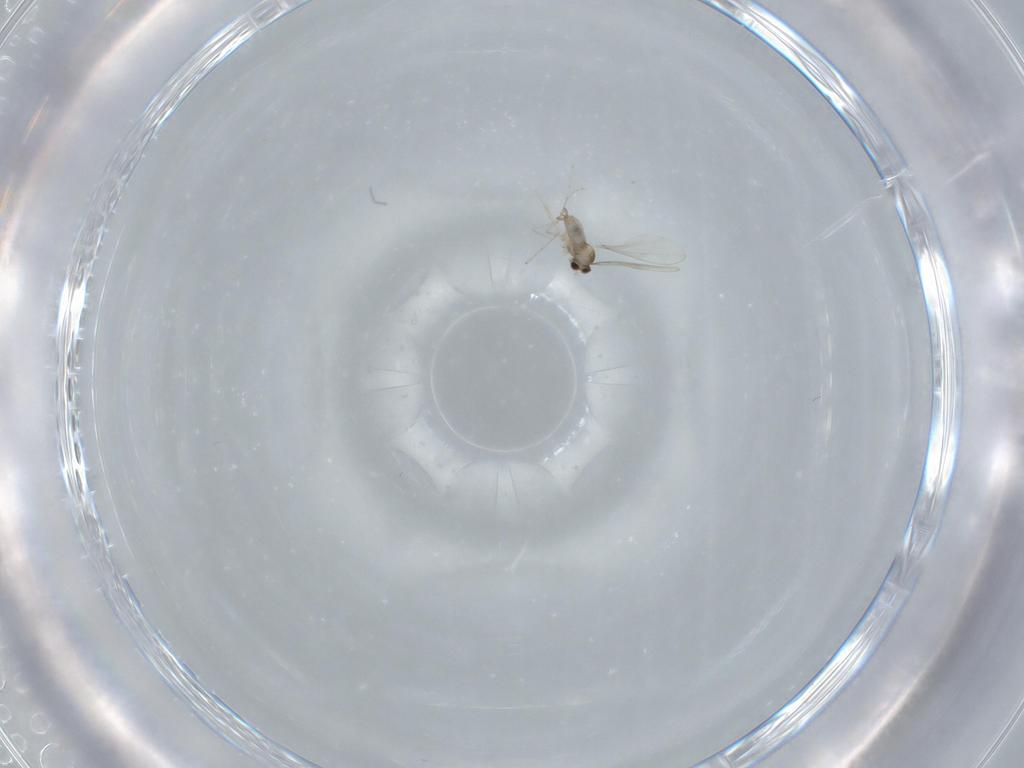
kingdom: Animalia
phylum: Arthropoda
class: Insecta
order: Diptera
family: Cecidomyiidae
